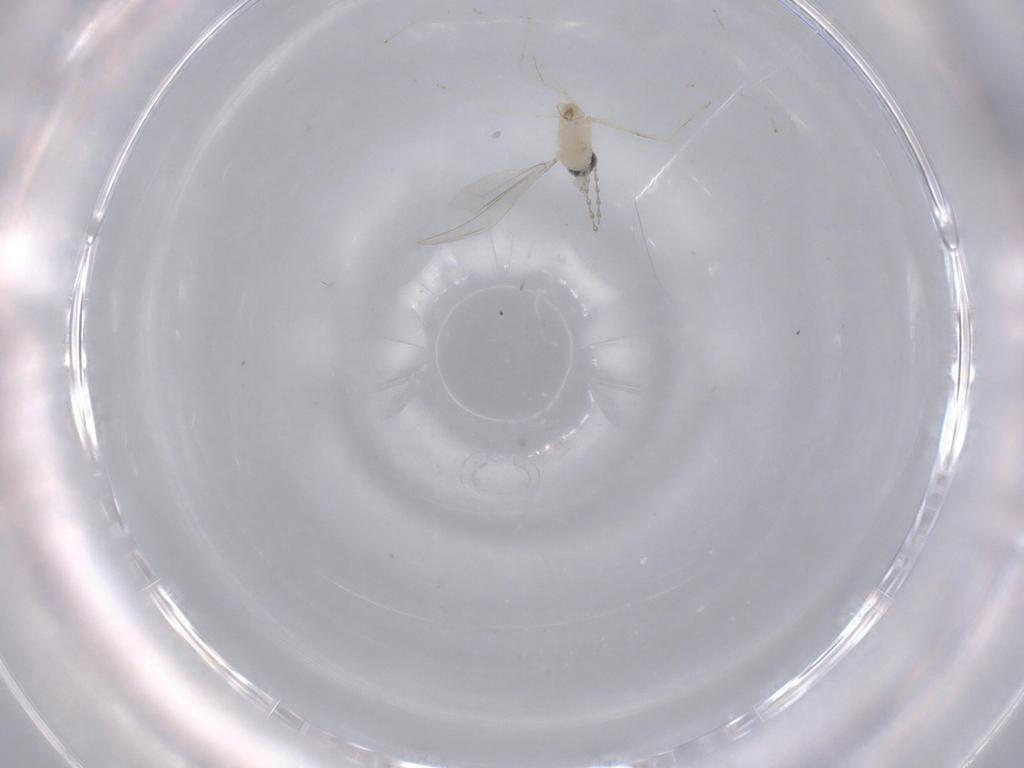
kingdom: Animalia
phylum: Arthropoda
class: Insecta
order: Diptera
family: Cecidomyiidae
